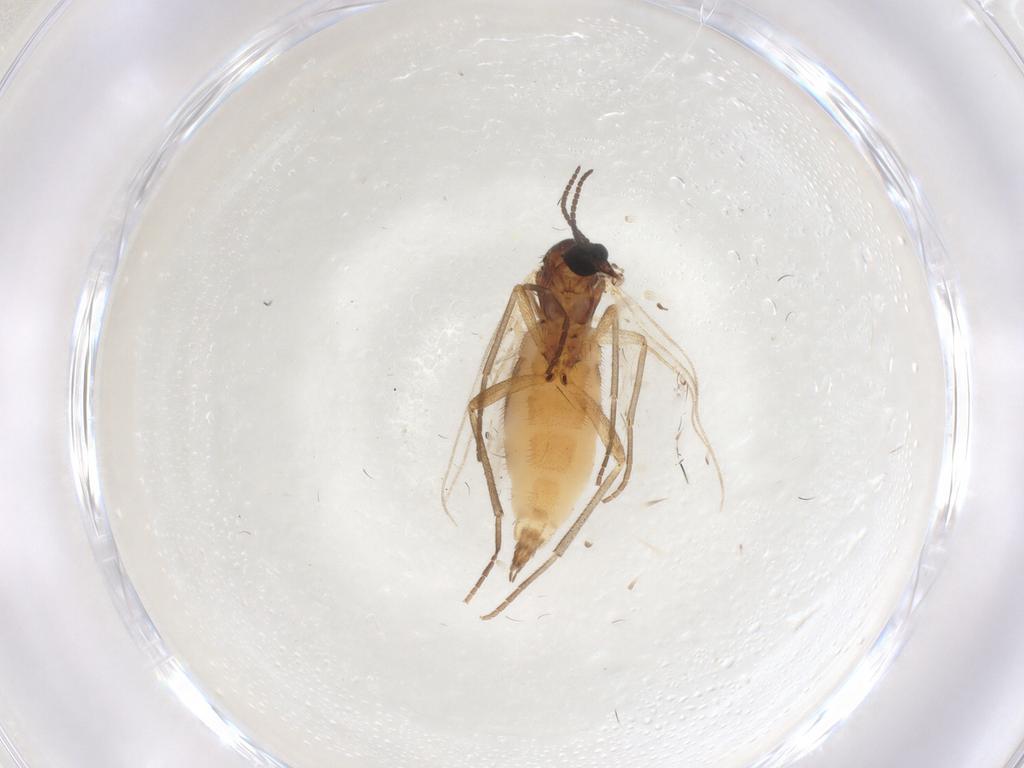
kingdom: Animalia
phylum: Arthropoda
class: Insecta
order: Diptera
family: Sciaridae
